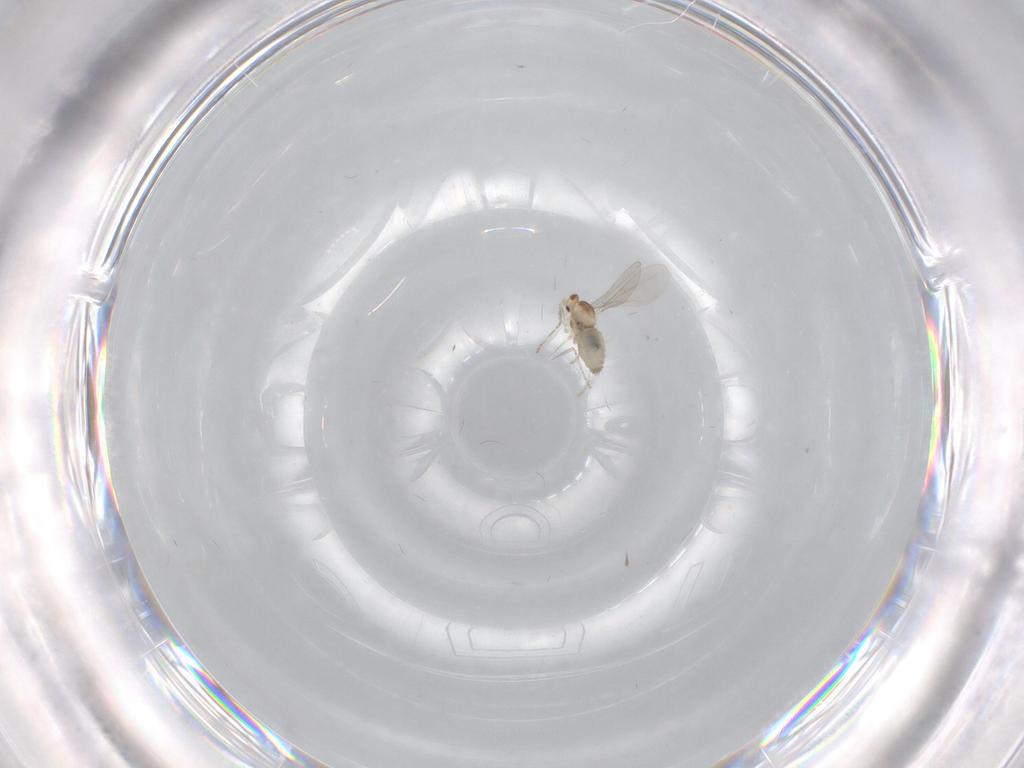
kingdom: Animalia
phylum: Arthropoda
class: Insecta
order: Diptera
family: Cecidomyiidae
